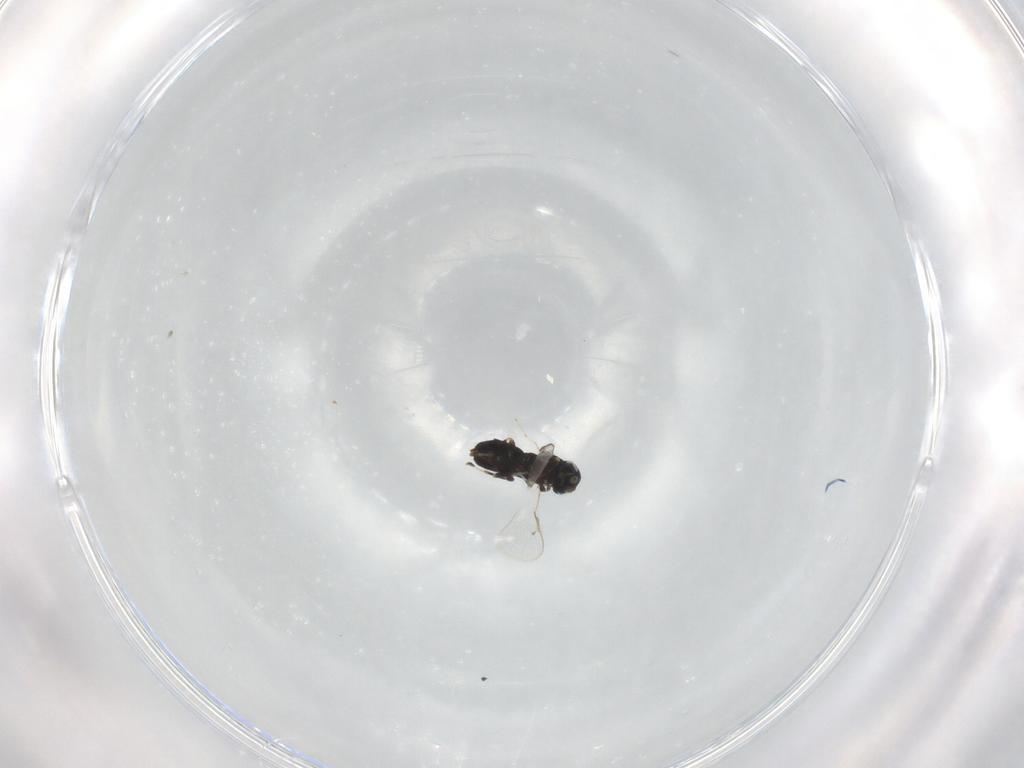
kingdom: Animalia
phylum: Arthropoda
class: Insecta
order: Hymenoptera
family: Eulophidae
